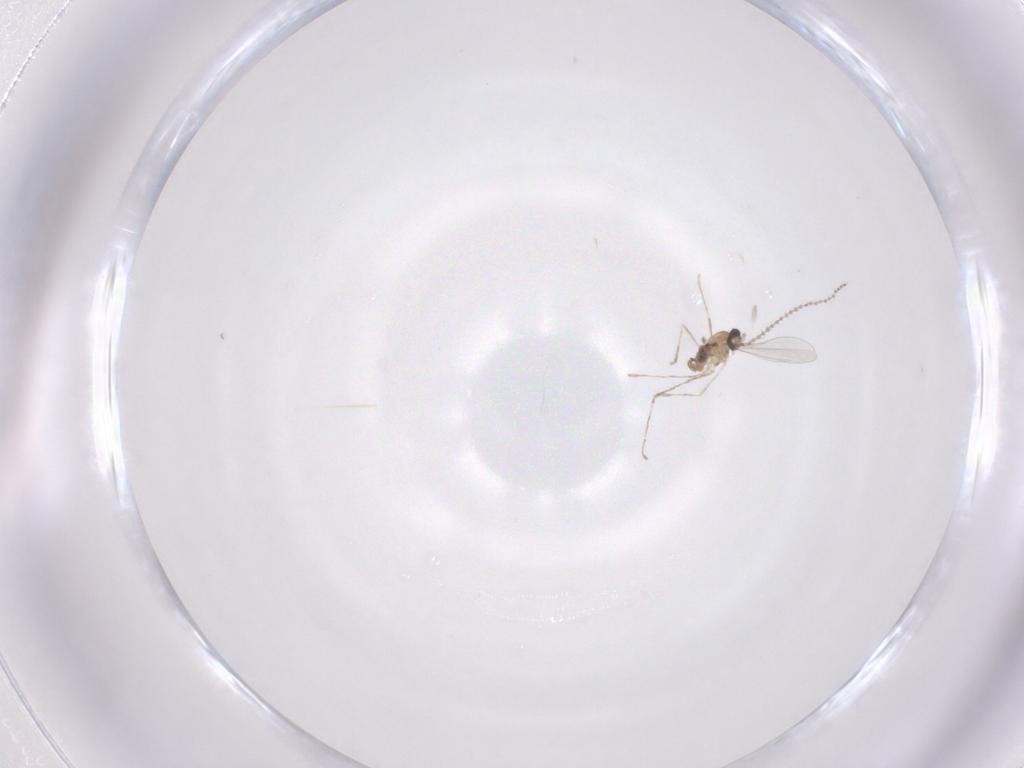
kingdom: Animalia
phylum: Arthropoda
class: Insecta
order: Diptera
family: Cecidomyiidae
